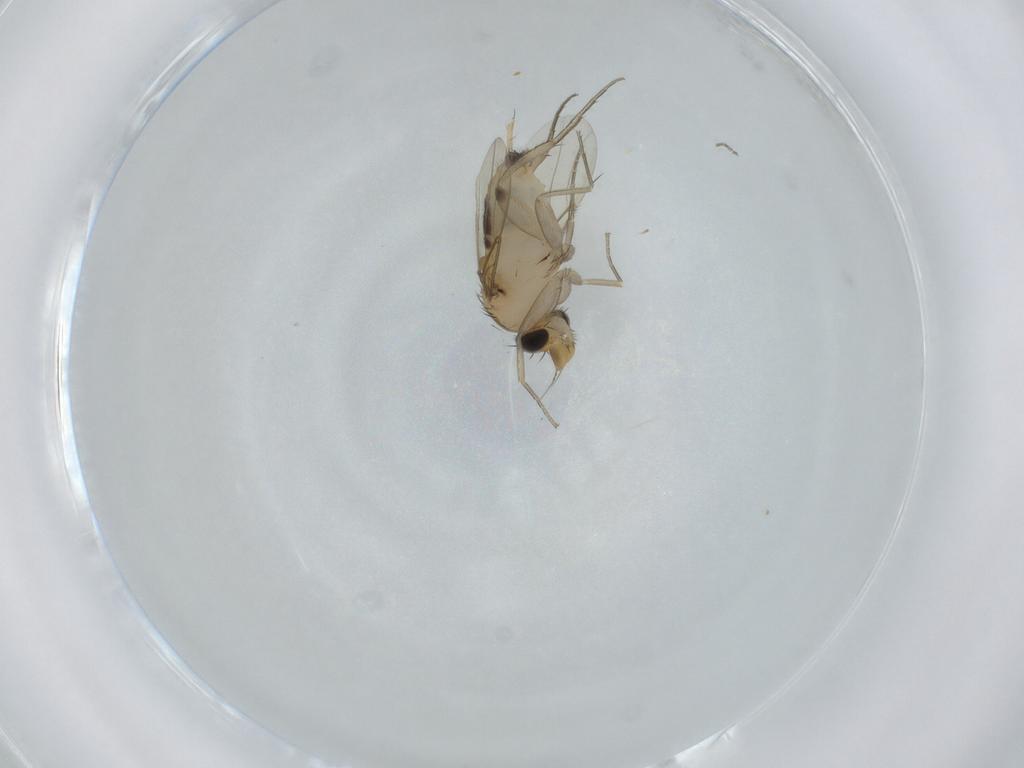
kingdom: Animalia
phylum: Arthropoda
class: Insecta
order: Diptera
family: Phoridae
